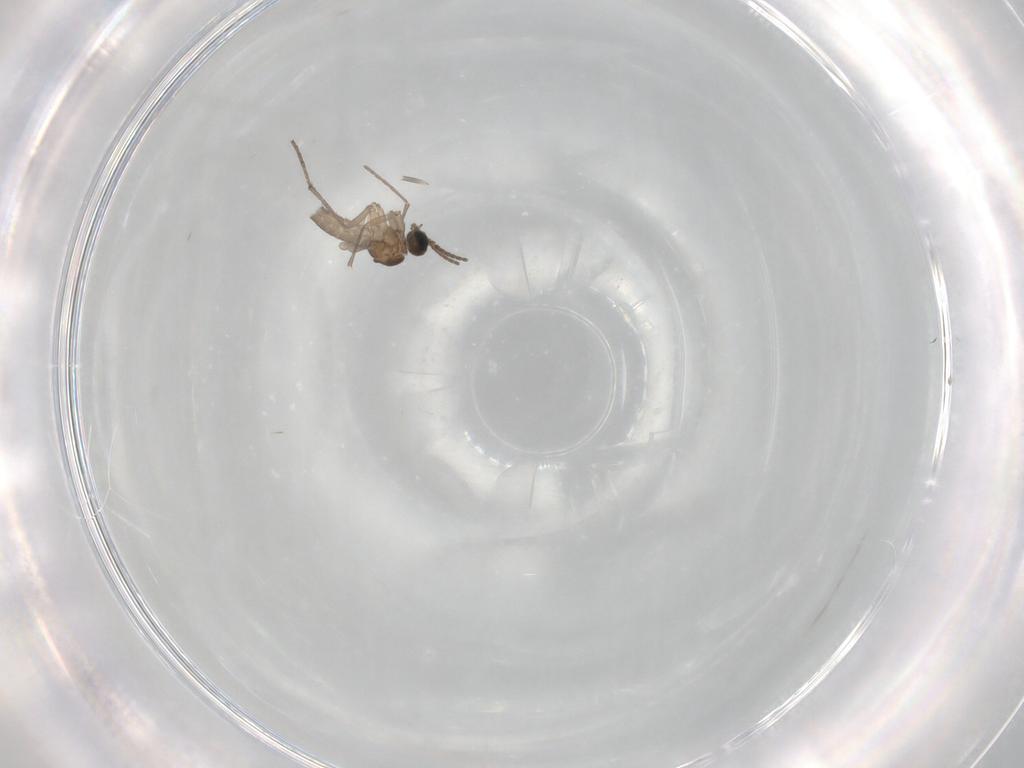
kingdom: Animalia
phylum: Arthropoda
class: Insecta
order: Diptera
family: Sciaridae
